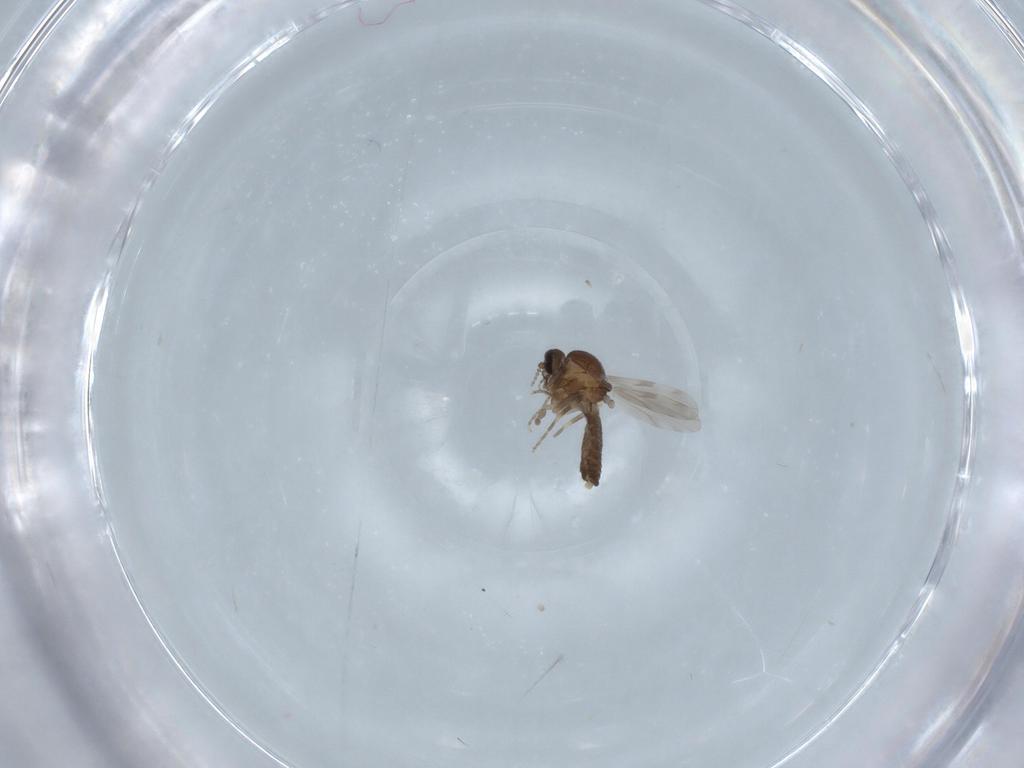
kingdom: Animalia
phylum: Arthropoda
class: Insecta
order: Diptera
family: Ceratopogonidae
